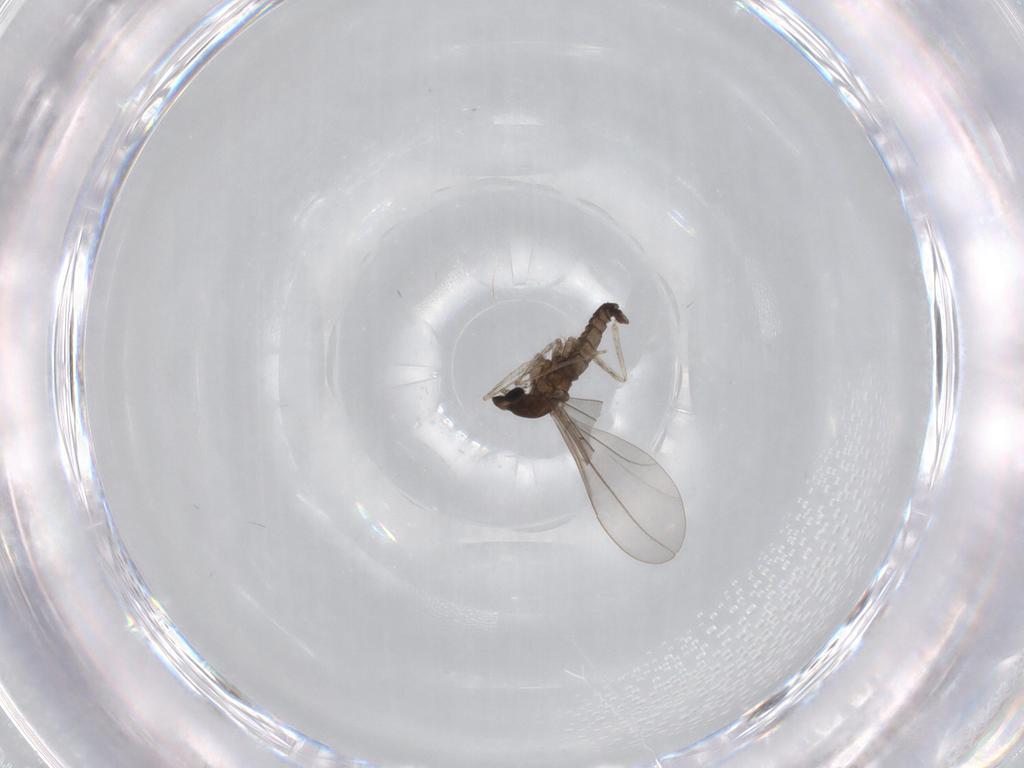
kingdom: Animalia
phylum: Arthropoda
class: Insecta
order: Diptera
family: Cecidomyiidae
